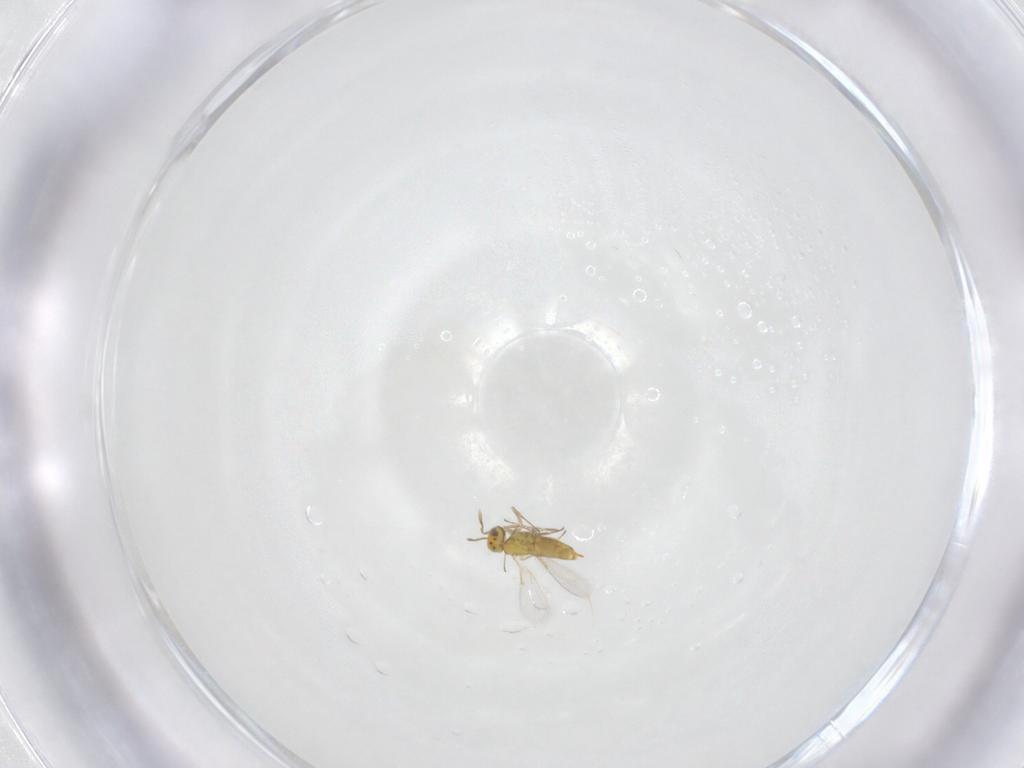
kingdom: Animalia
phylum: Arthropoda
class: Insecta
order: Hymenoptera
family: Aphelinidae
